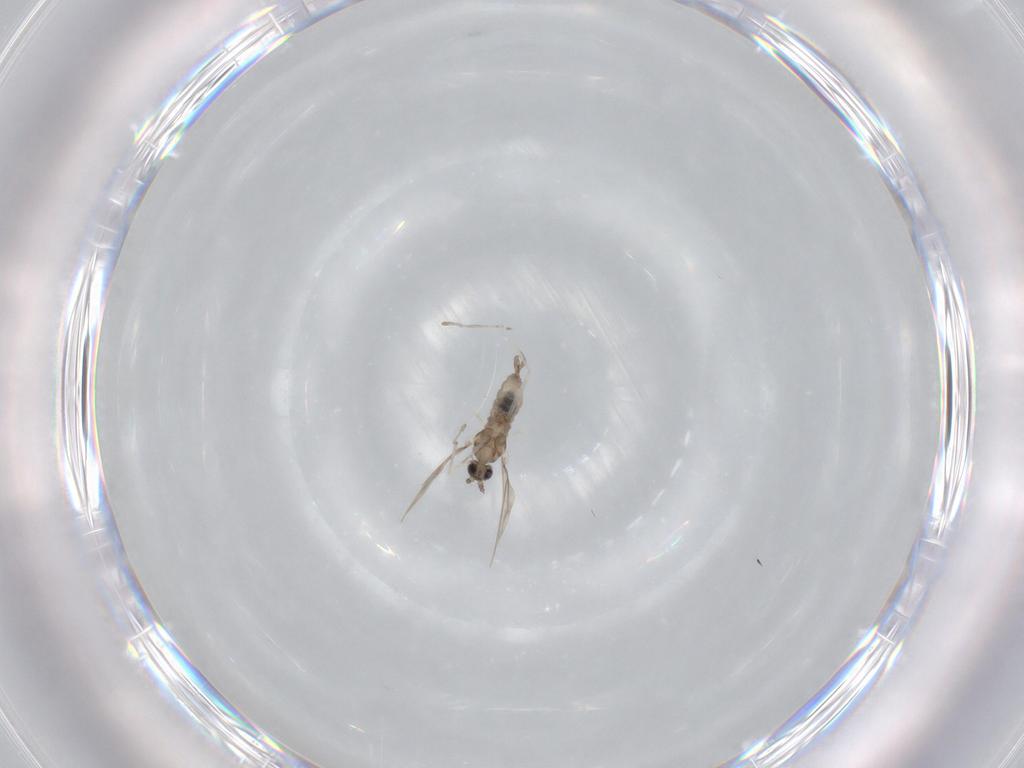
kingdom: Animalia
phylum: Arthropoda
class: Insecta
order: Diptera
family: Cecidomyiidae
